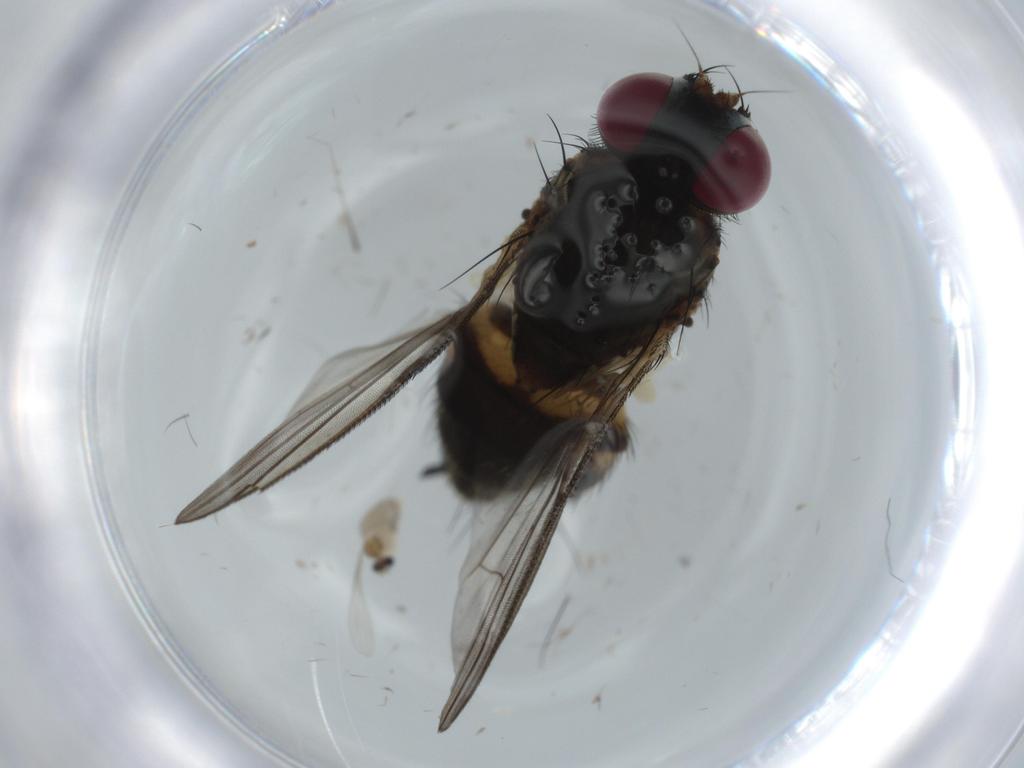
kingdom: Animalia
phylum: Arthropoda
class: Insecta
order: Diptera
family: Fannia
